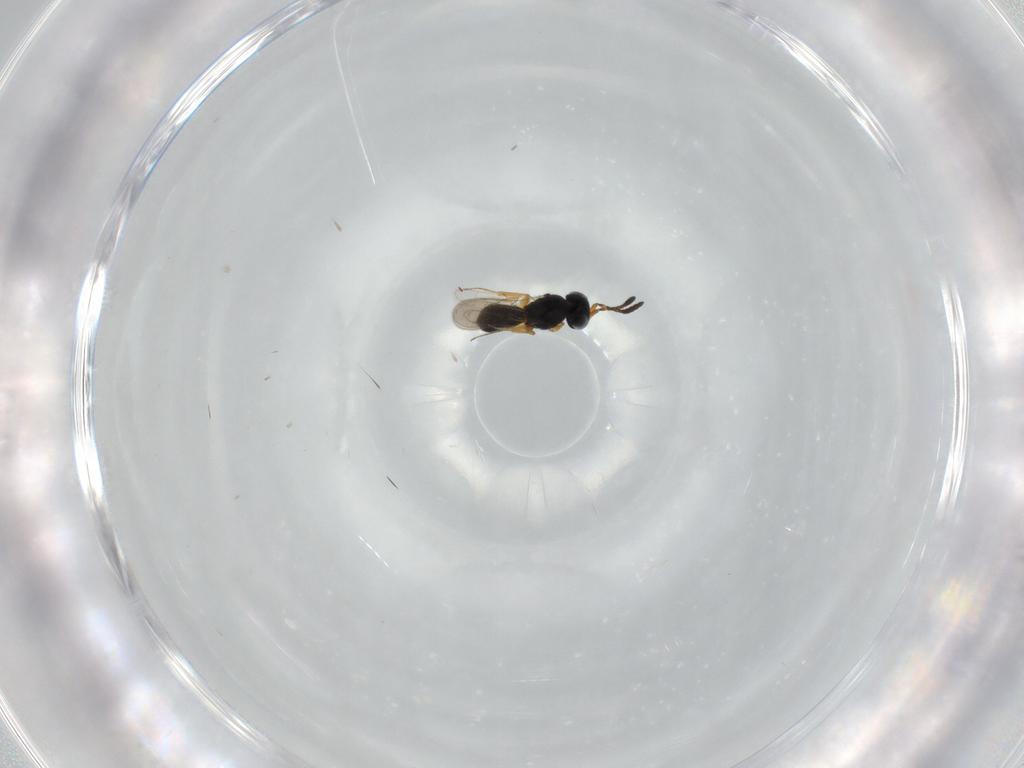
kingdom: Animalia
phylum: Arthropoda
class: Insecta
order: Hymenoptera
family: Scelionidae
